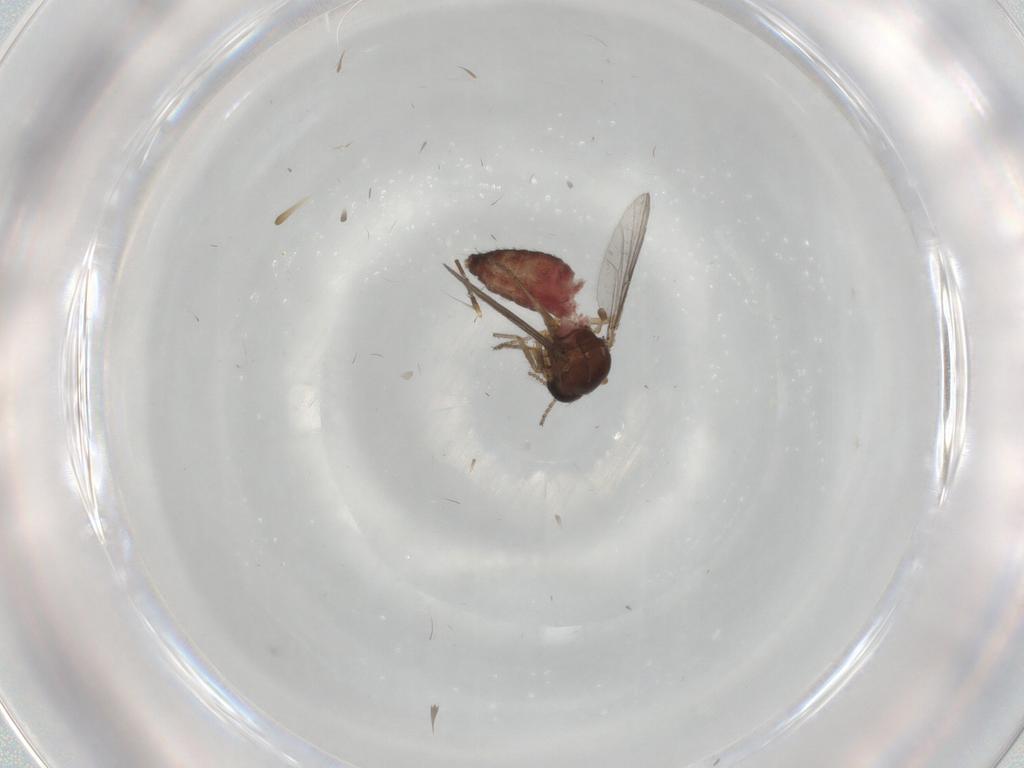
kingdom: Animalia
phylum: Arthropoda
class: Insecta
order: Diptera
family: Ceratopogonidae
